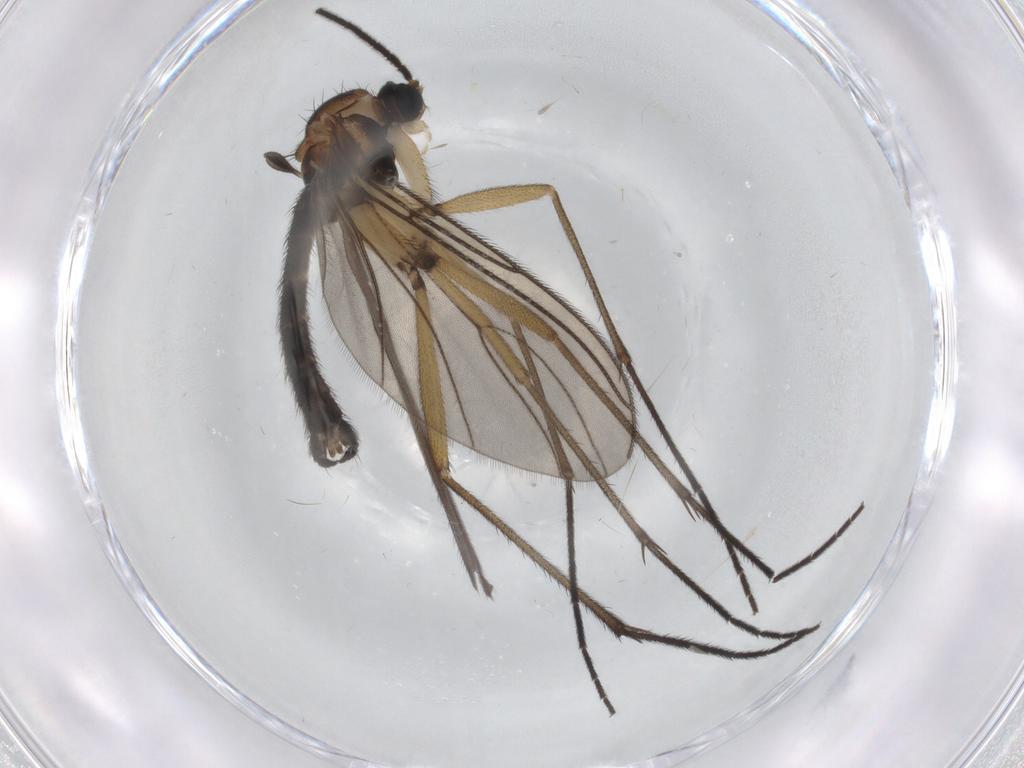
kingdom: Animalia
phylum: Arthropoda
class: Insecta
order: Diptera
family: Sciaridae
